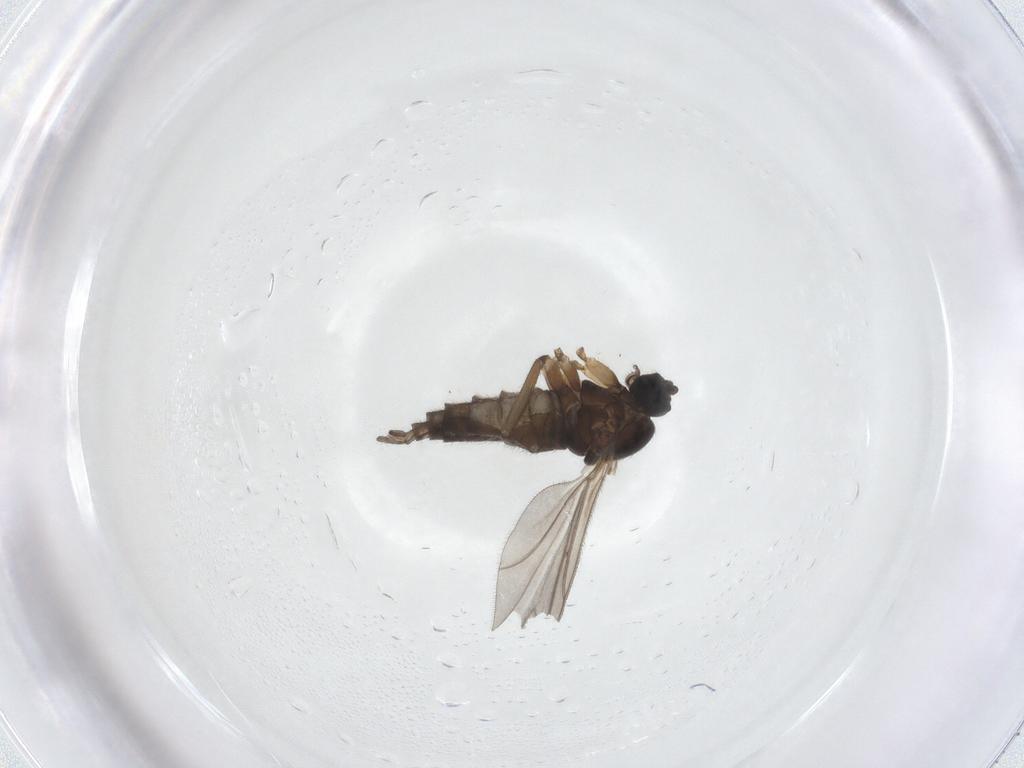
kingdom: Animalia
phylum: Arthropoda
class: Insecta
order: Diptera
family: Sciaridae
